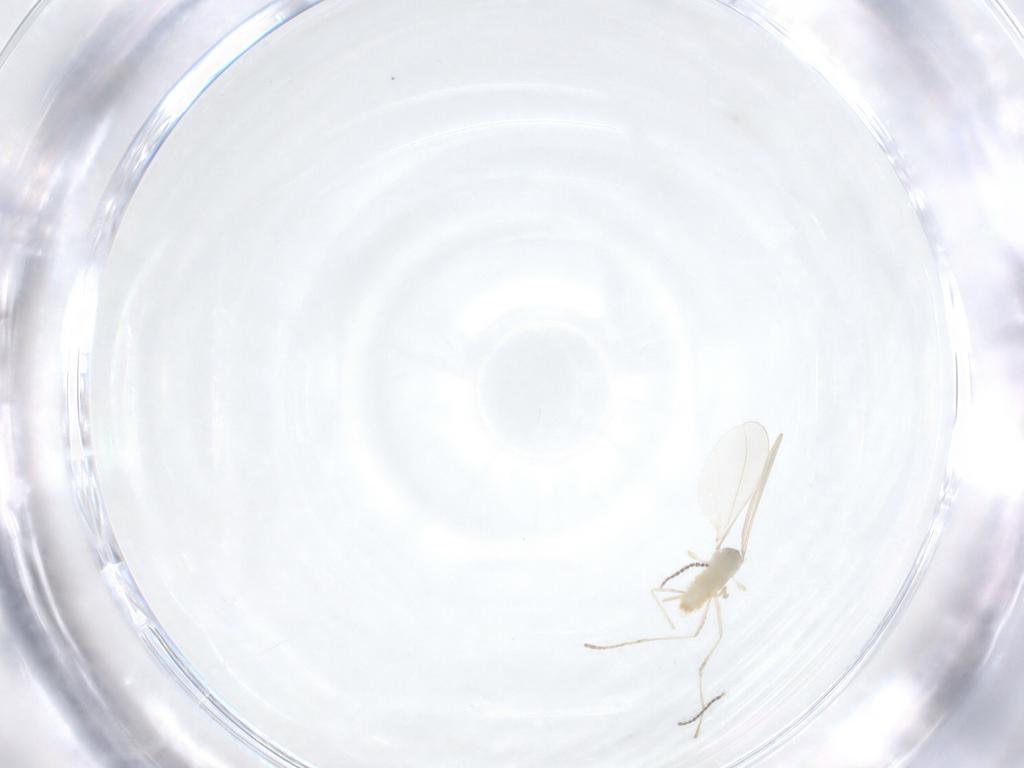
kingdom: Animalia
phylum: Arthropoda
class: Insecta
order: Diptera
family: Cecidomyiidae
